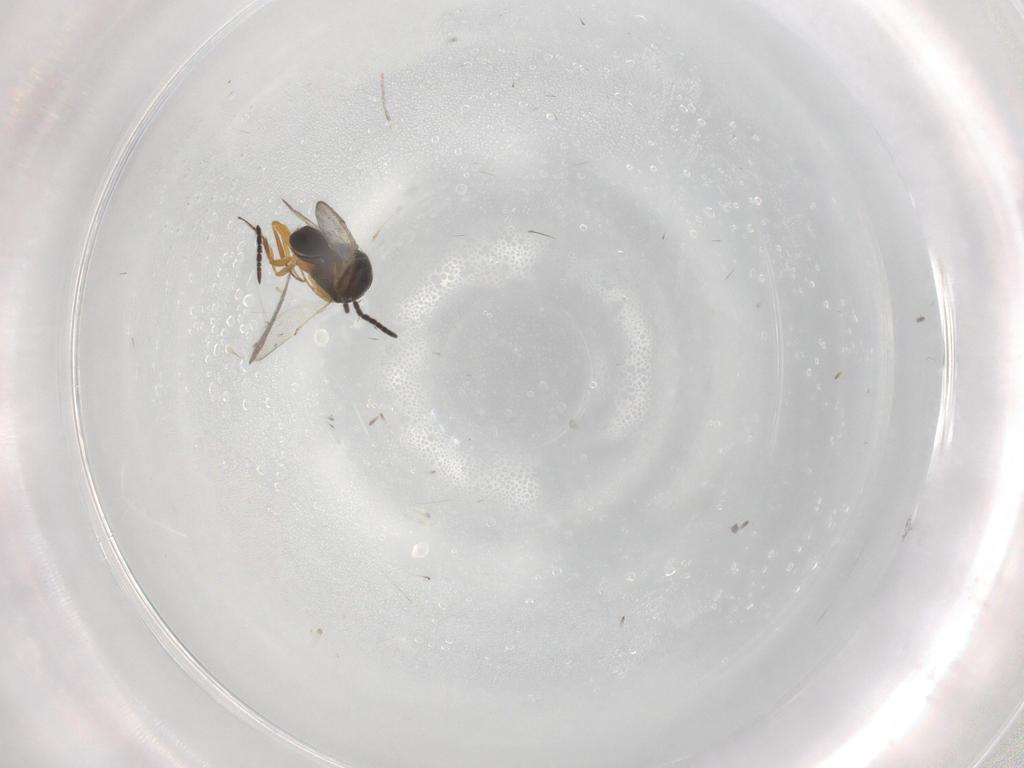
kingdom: Animalia
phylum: Arthropoda
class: Insecta
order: Coleoptera
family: Curculionidae
